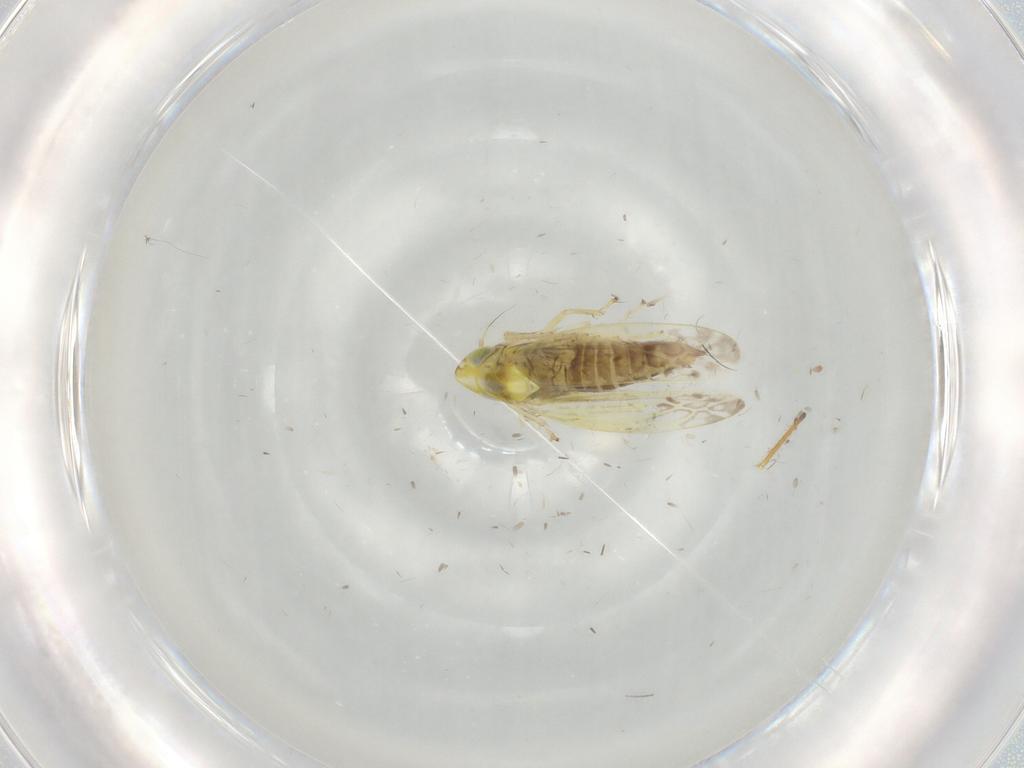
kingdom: Animalia
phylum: Arthropoda
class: Insecta
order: Hemiptera
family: Cicadellidae
